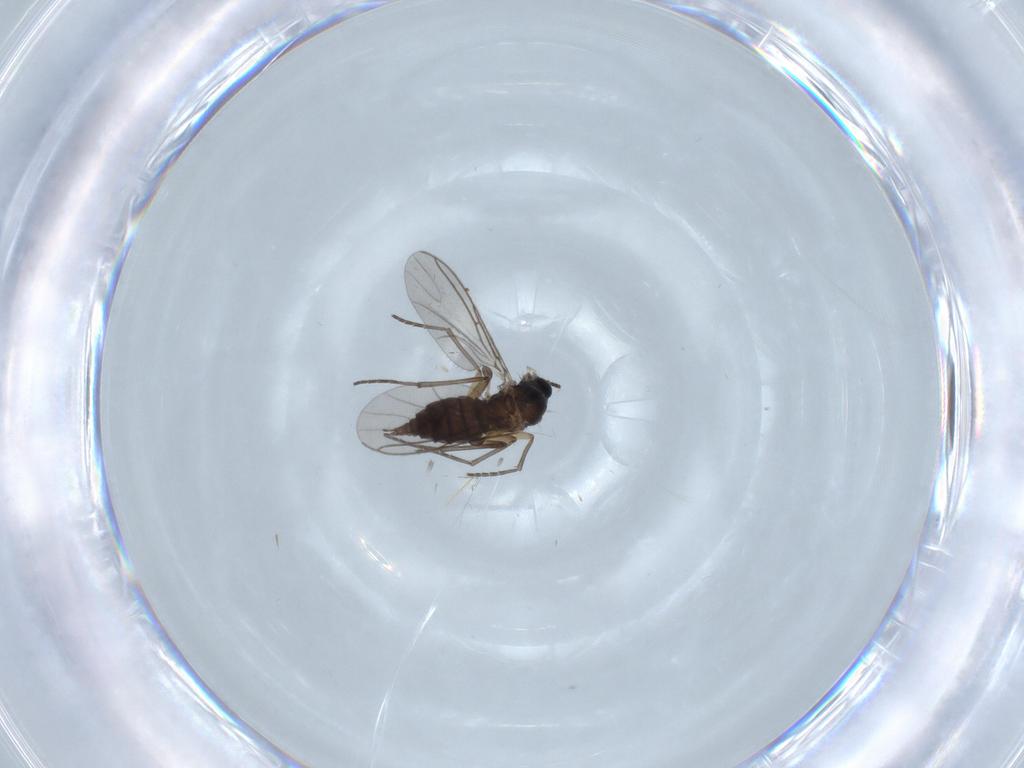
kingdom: Animalia
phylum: Arthropoda
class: Insecta
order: Diptera
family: Sciaridae
